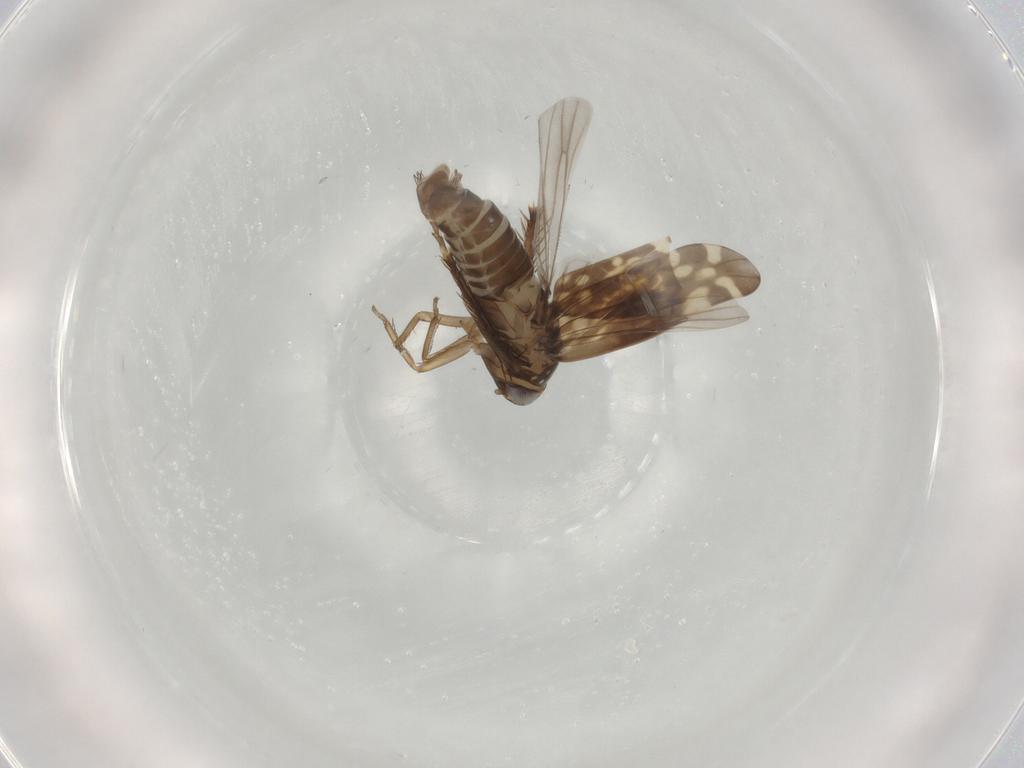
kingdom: Animalia
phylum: Arthropoda
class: Insecta
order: Hemiptera
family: Cicadellidae
